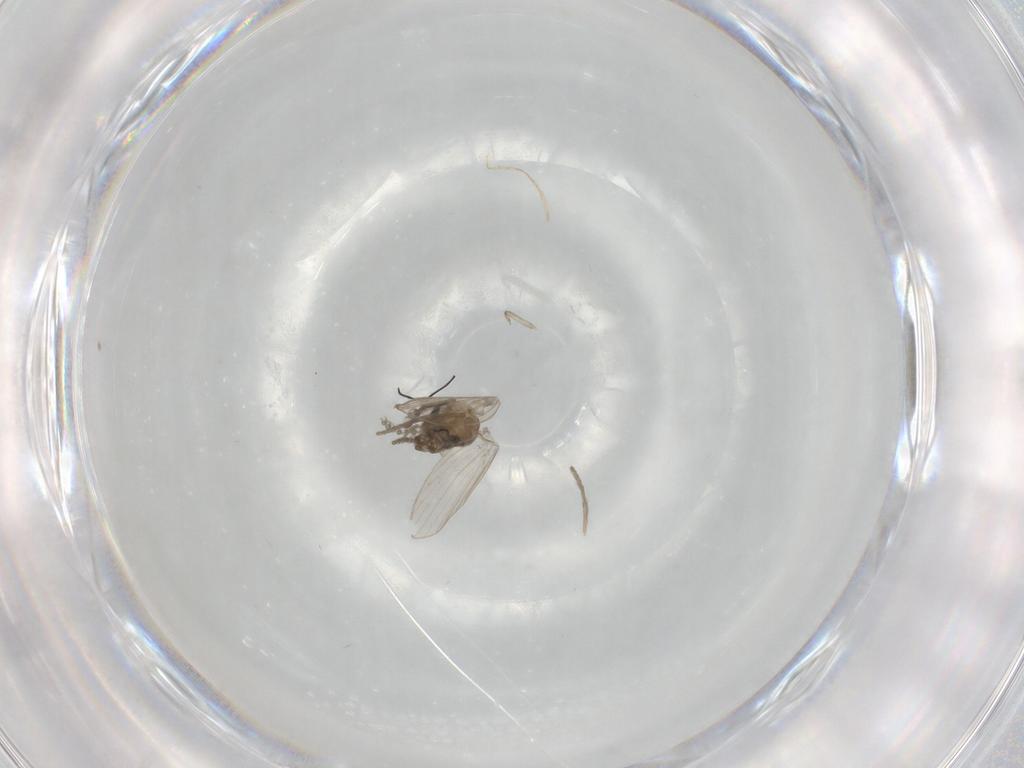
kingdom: Animalia
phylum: Arthropoda
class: Insecta
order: Diptera
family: Psychodidae
